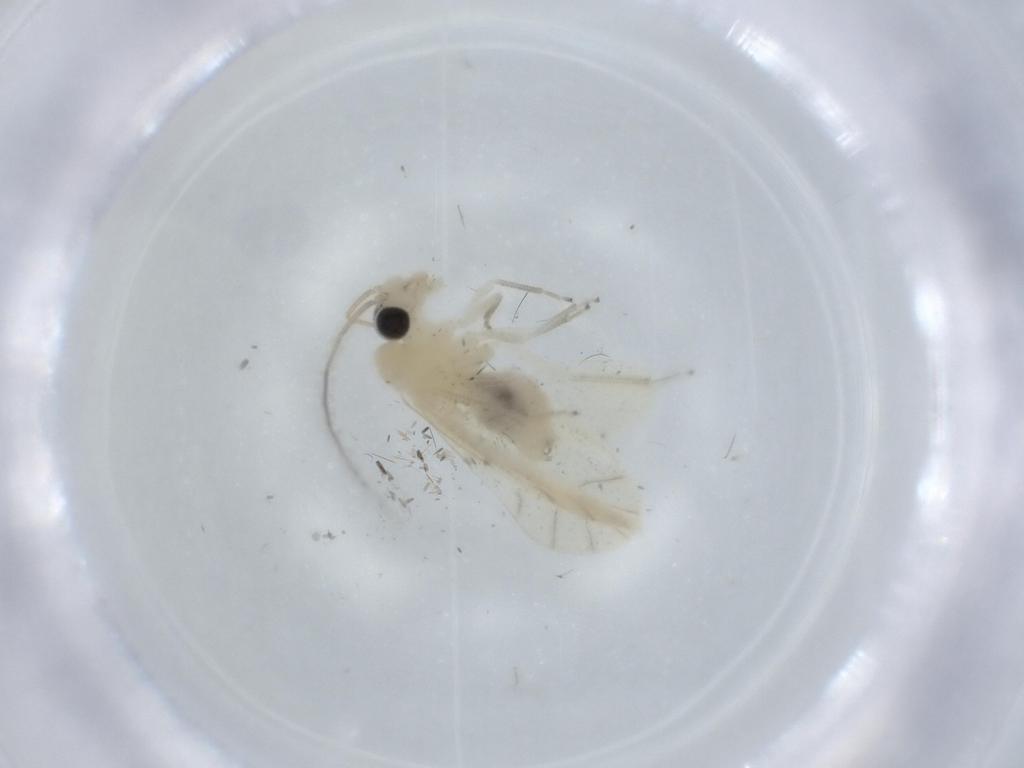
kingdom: Animalia
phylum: Arthropoda
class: Insecta
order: Psocodea
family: Caeciliusidae
